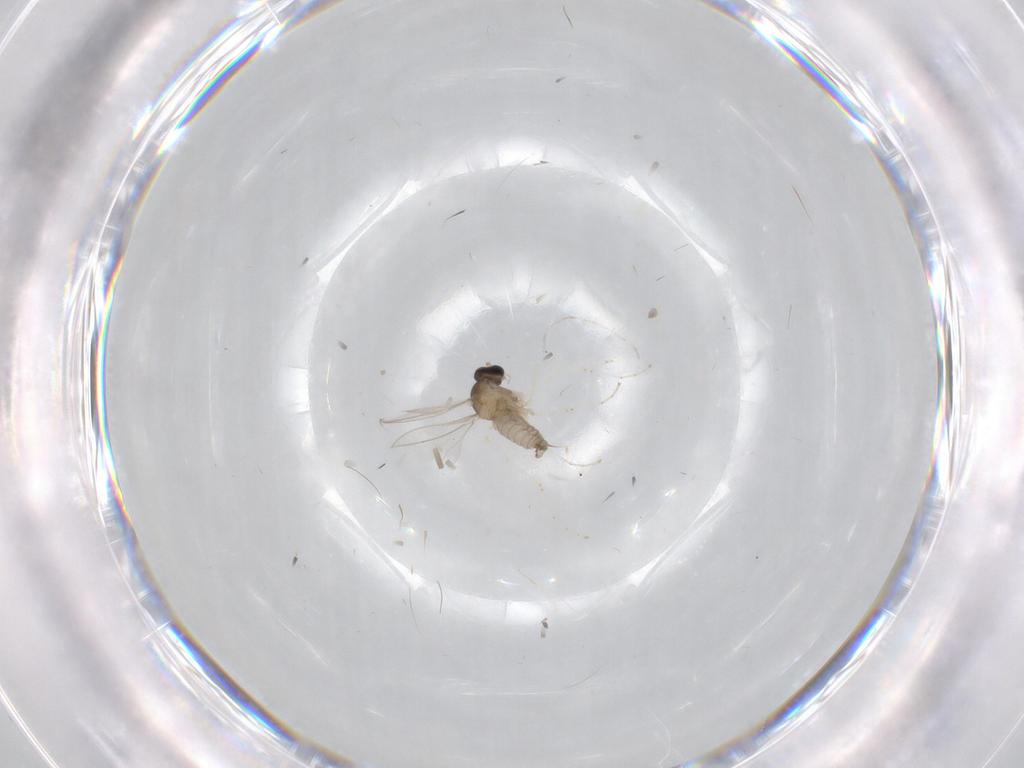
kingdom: Animalia
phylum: Arthropoda
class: Insecta
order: Diptera
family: Cecidomyiidae
